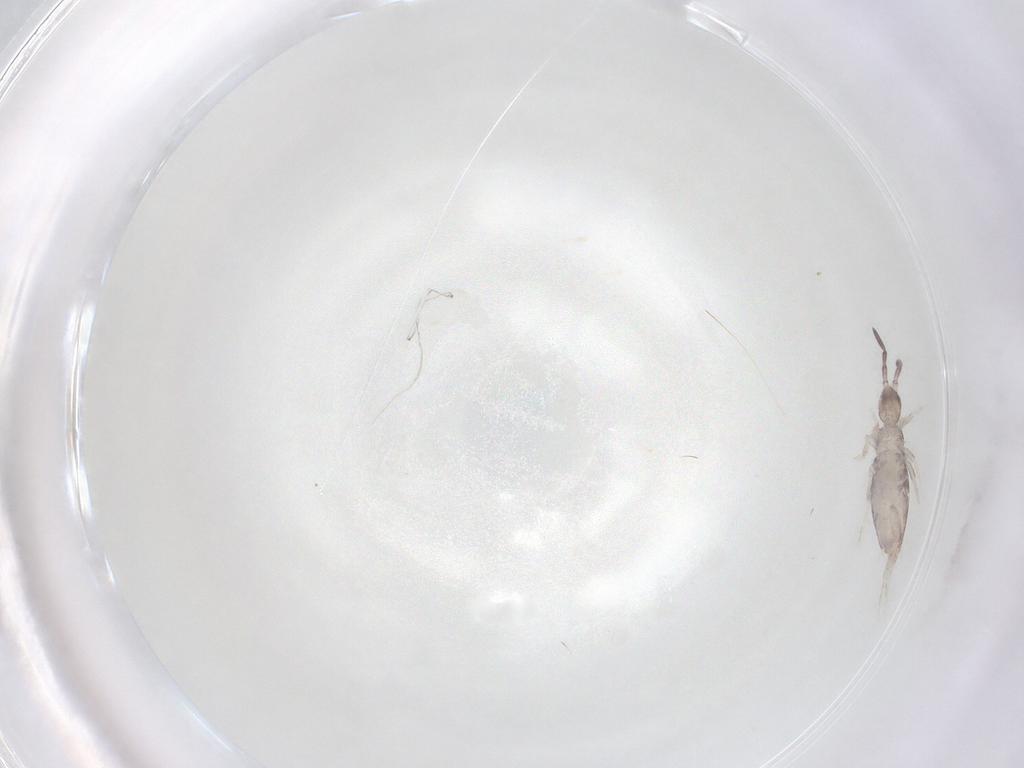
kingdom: Animalia
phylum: Arthropoda
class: Collembola
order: Entomobryomorpha
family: Entomobryidae
